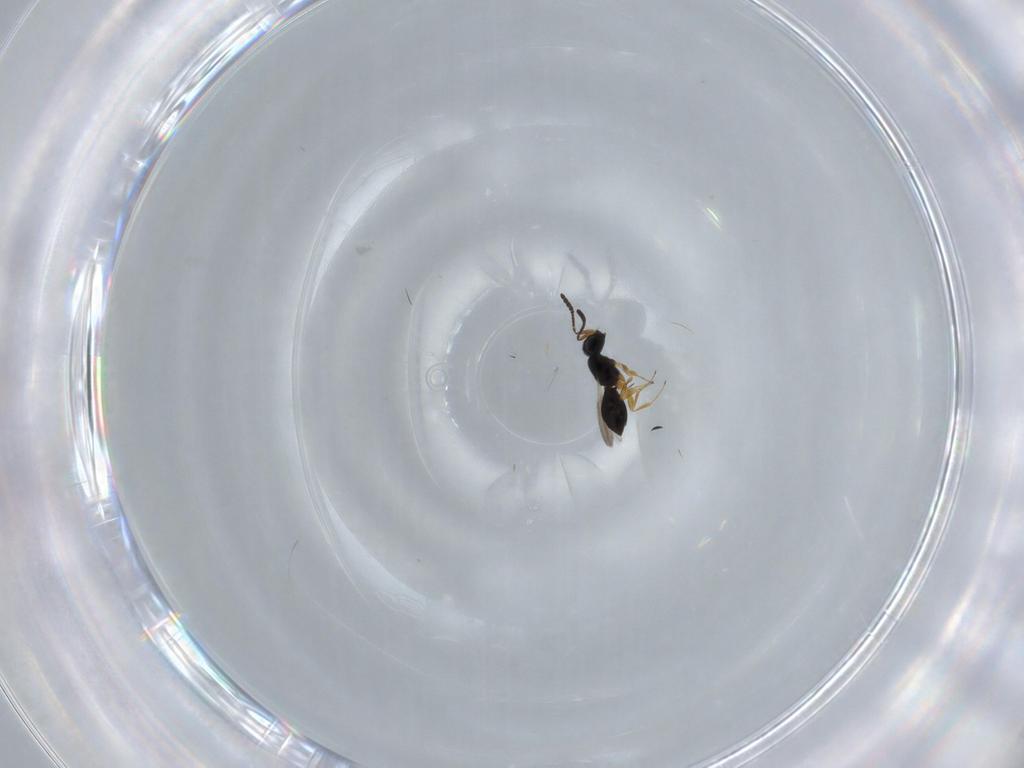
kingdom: Animalia
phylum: Arthropoda
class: Insecta
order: Hymenoptera
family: Scelionidae
